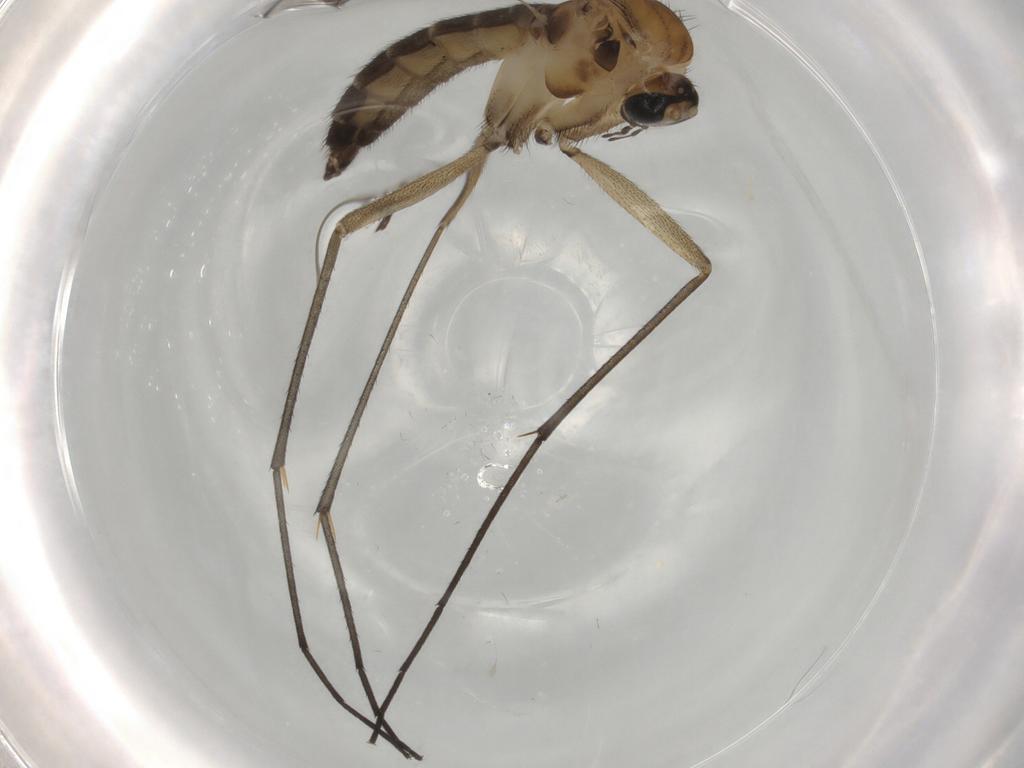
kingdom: Animalia
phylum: Arthropoda
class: Insecta
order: Diptera
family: Sciaridae
